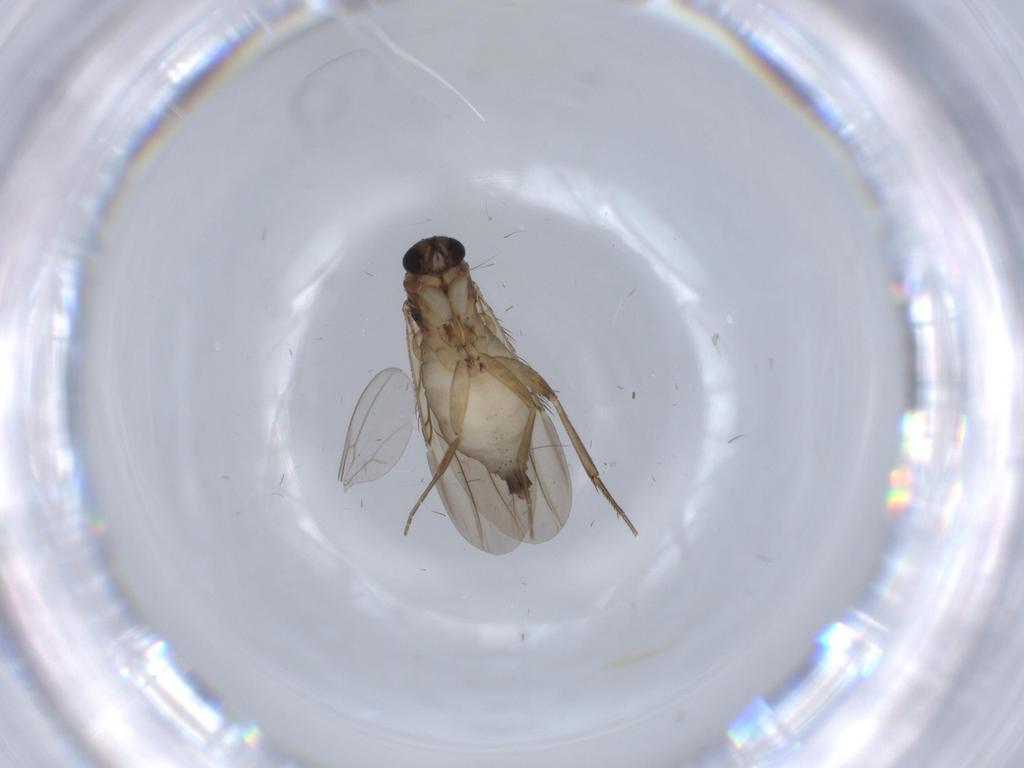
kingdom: Animalia
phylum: Arthropoda
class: Insecta
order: Diptera
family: Phoridae
